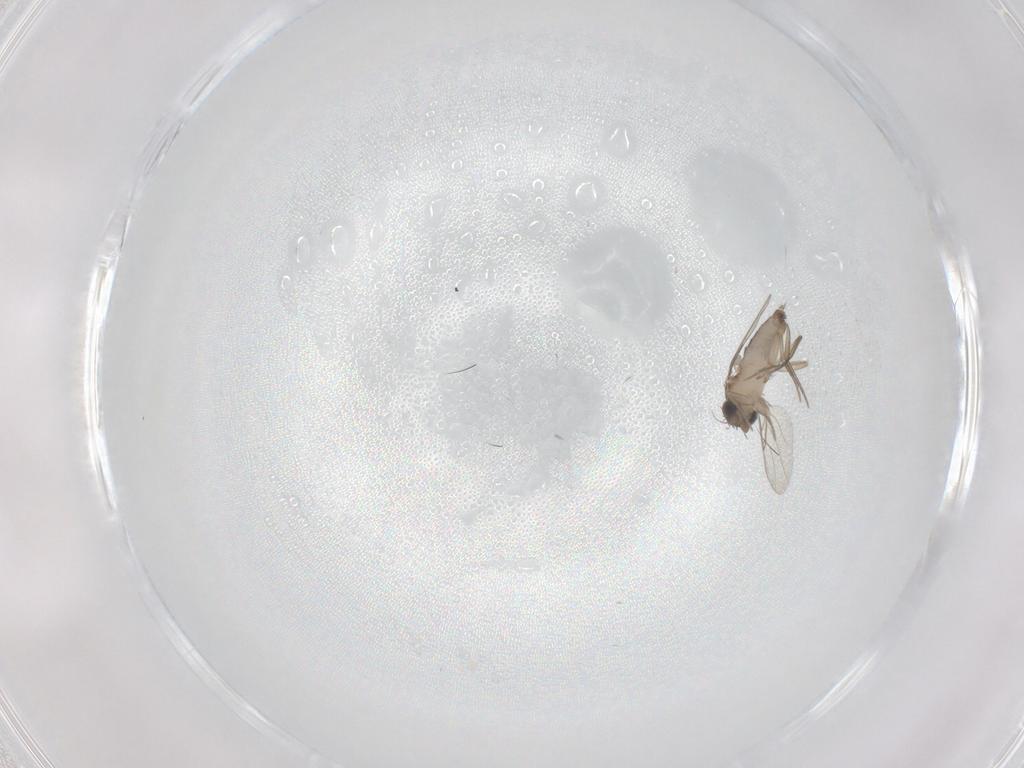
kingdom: Animalia
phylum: Arthropoda
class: Insecta
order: Diptera
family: Phoridae
